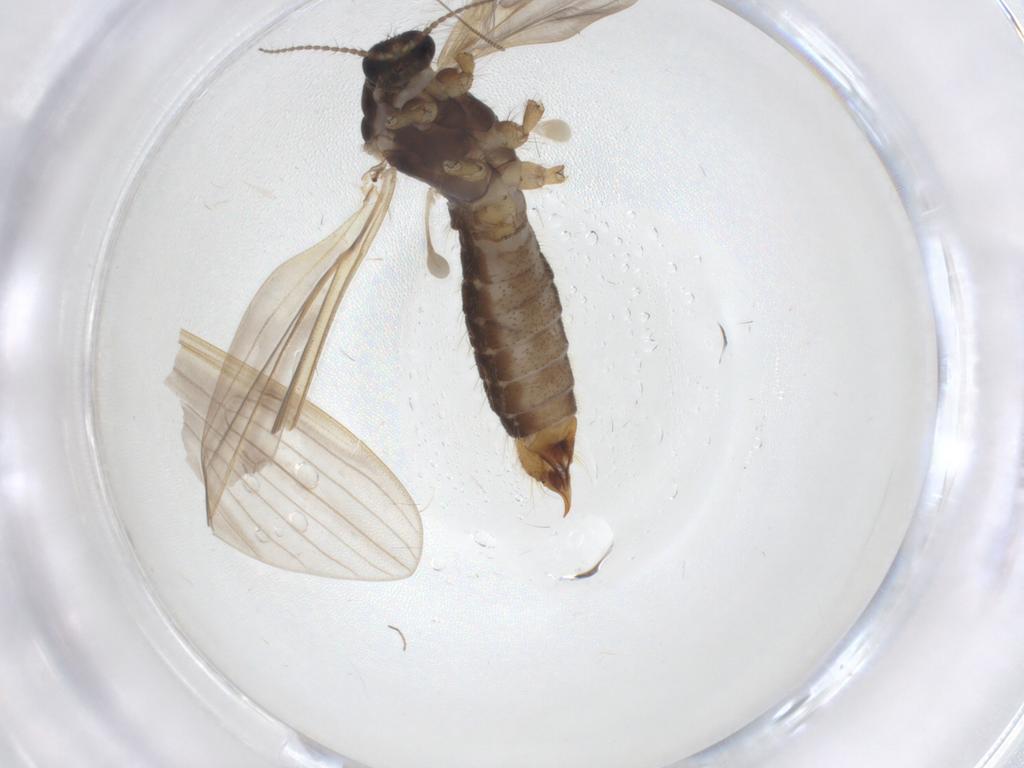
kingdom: Animalia
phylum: Arthropoda
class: Insecta
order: Diptera
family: Sciaridae
